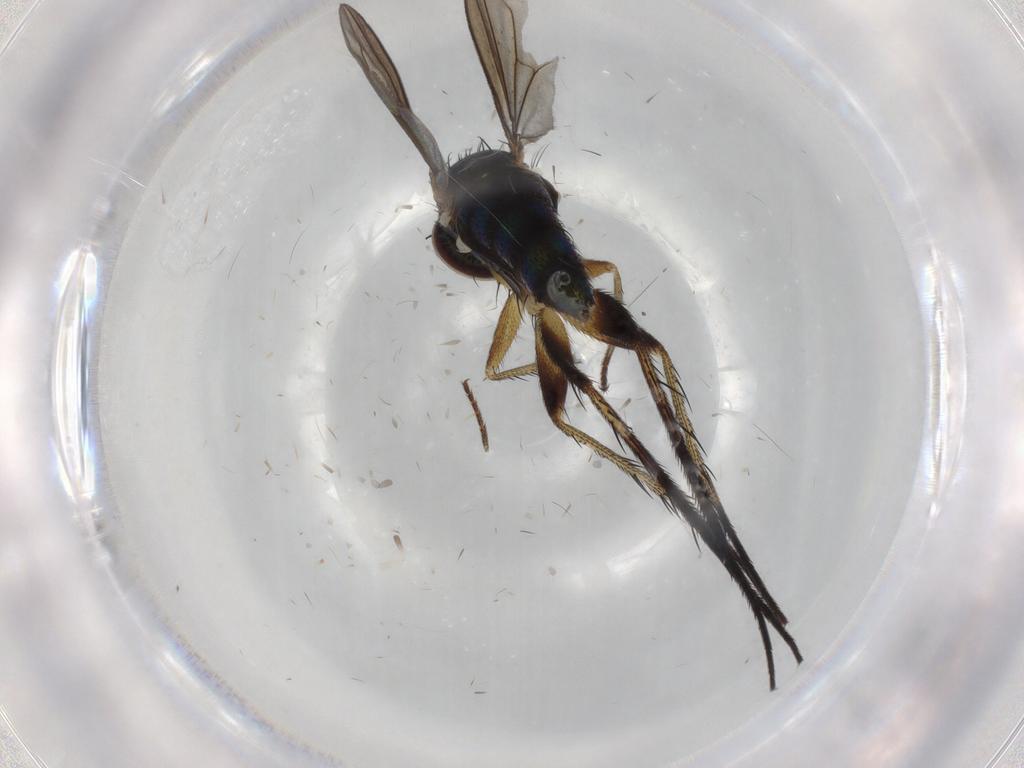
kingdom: Animalia
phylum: Arthropoda
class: Insecta
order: Diptera
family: Dolichopodidae
